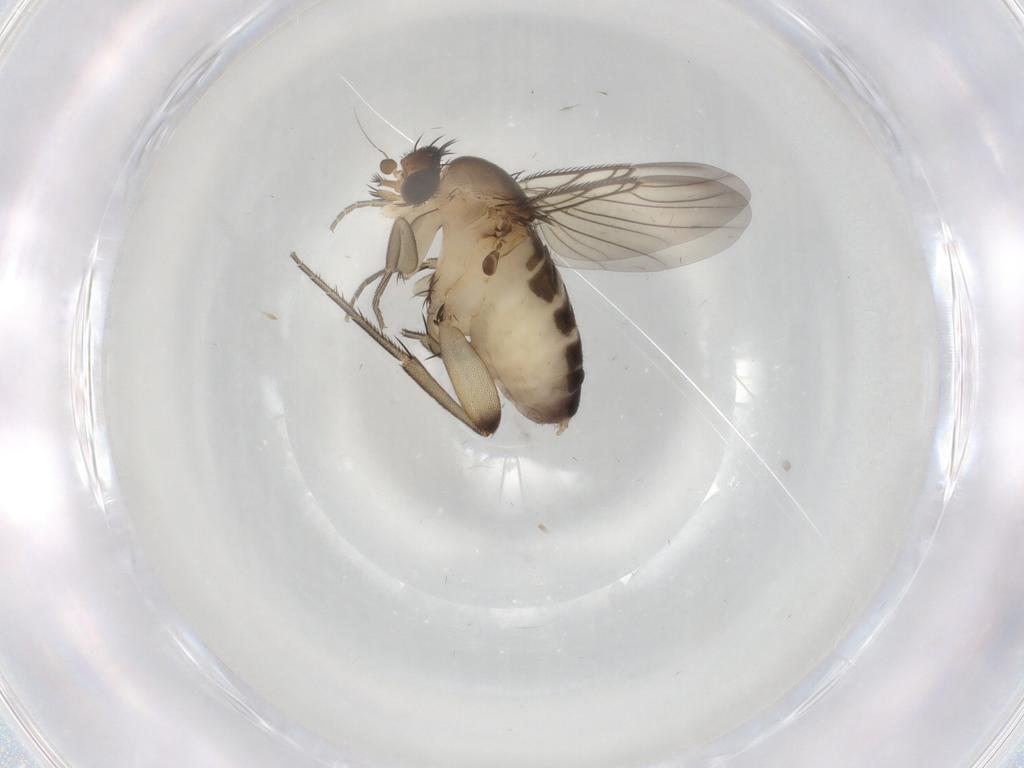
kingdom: Animalia
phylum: Arthropoda
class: Insecta
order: Diptera
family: Phoridae
